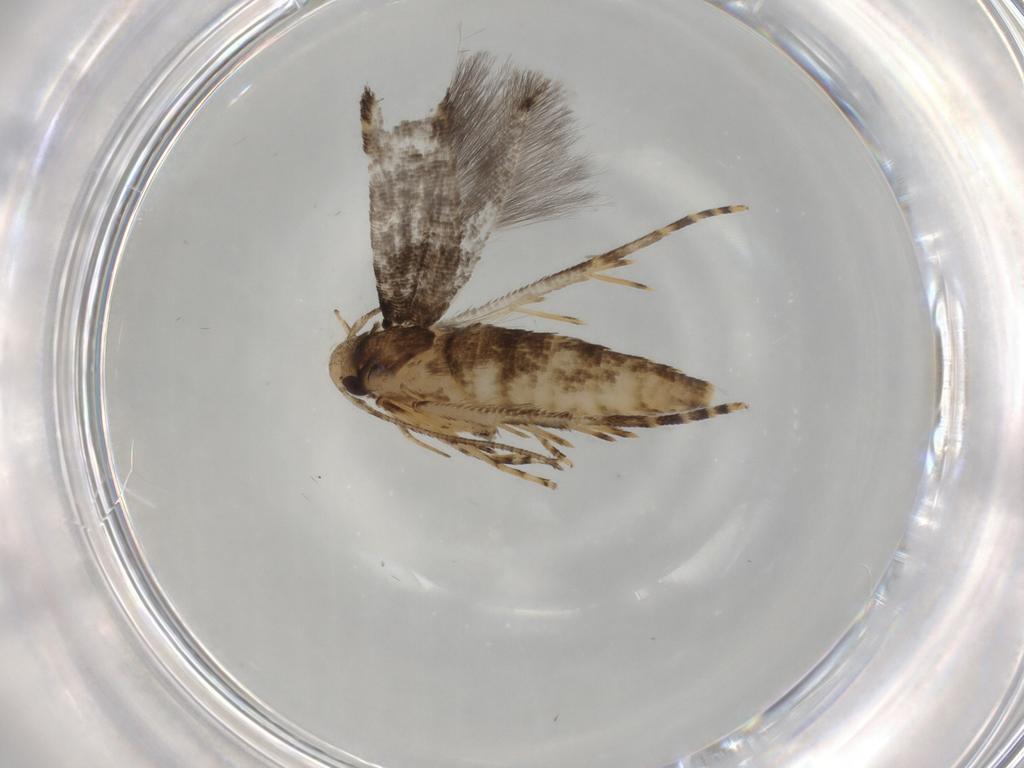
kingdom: Animalia
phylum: Arthropoda
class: Insecta
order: Lepidoptera
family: Cosmopterigidae
